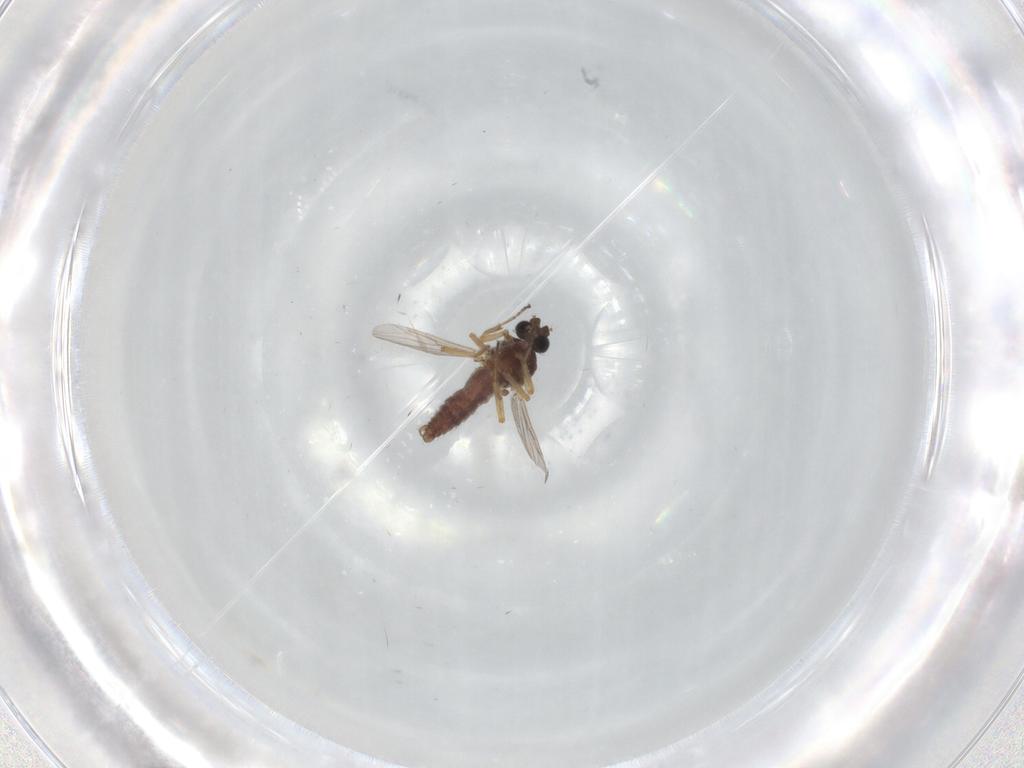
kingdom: Animalia
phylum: Arthropoda
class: Insecta
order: Diptera
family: Ceratopogonidae
